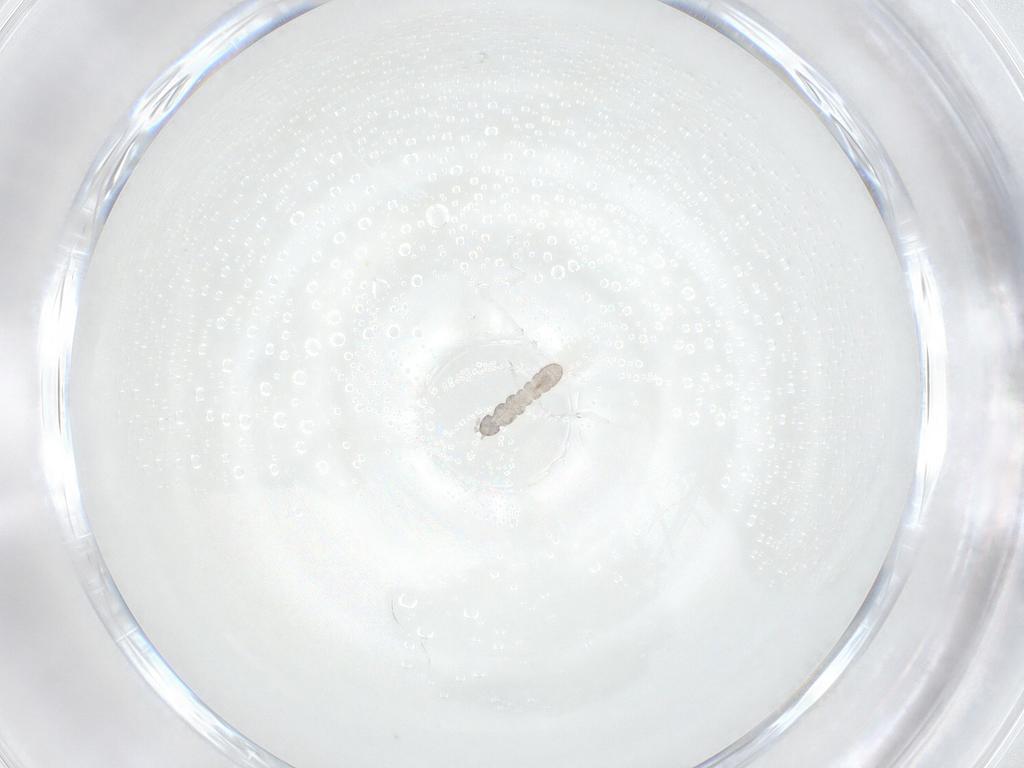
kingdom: Animalia
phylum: Arthropoda
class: Collembola
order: Entomobryomorpha
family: Isotomidae
